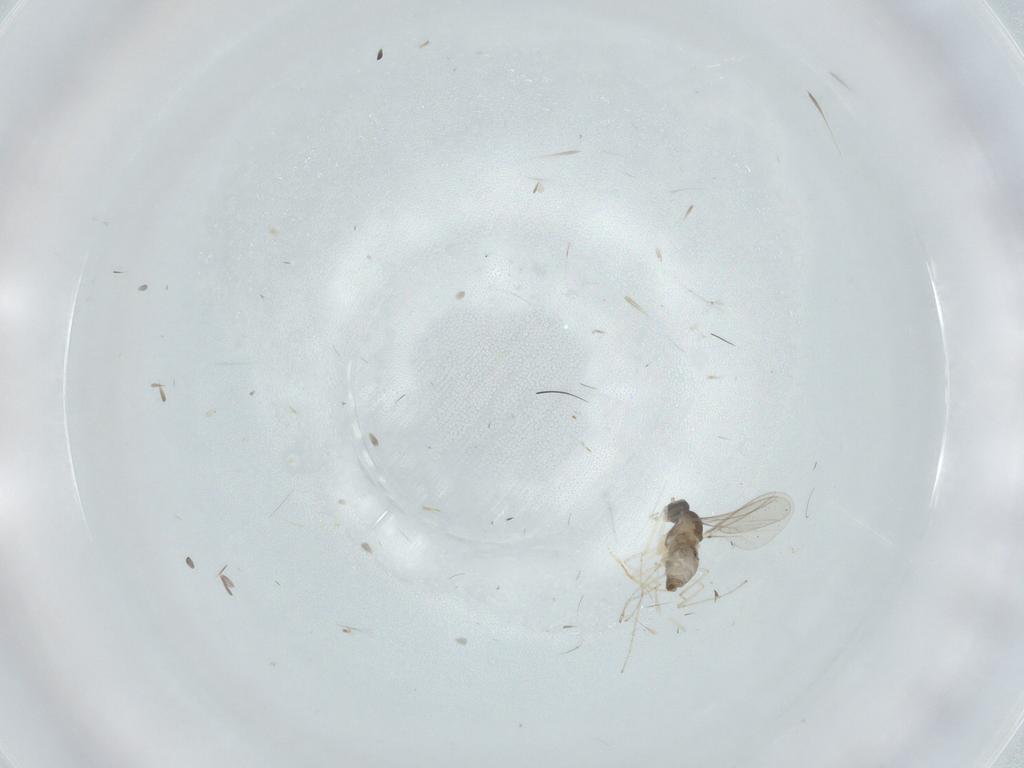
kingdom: Animalia
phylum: Arthropoda
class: Insecta
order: Diptera
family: Cecidomyiidae
